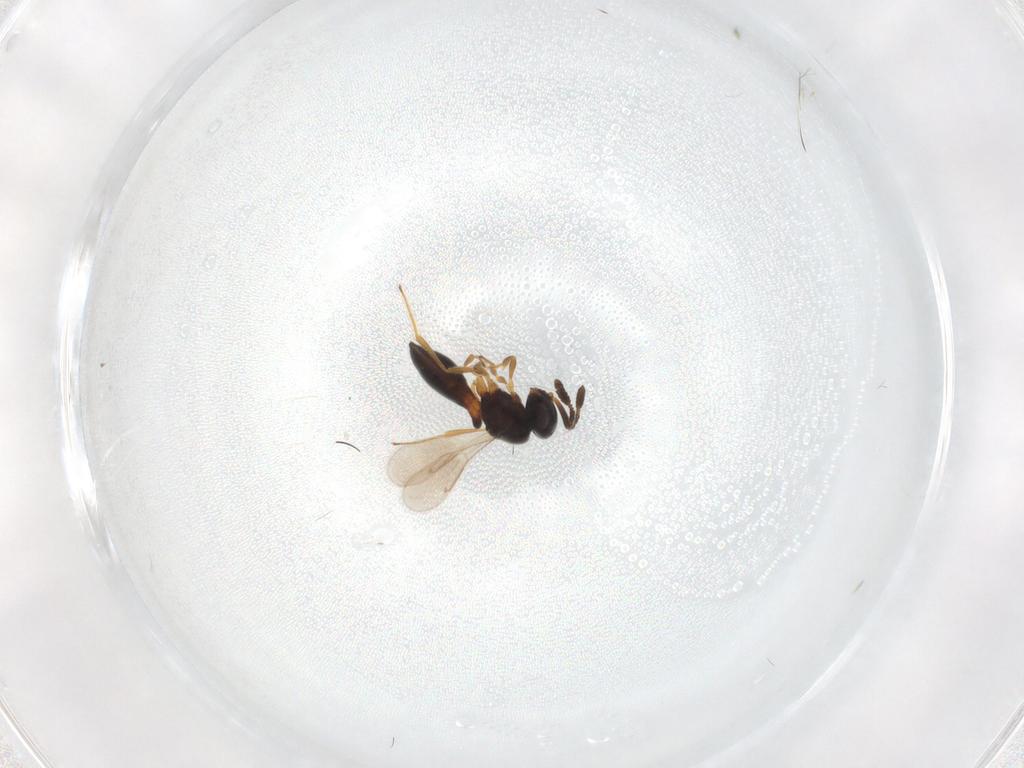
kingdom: Animalia
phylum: Arthropoda
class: Insecta
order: Hymenoptera
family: Scelionidae
